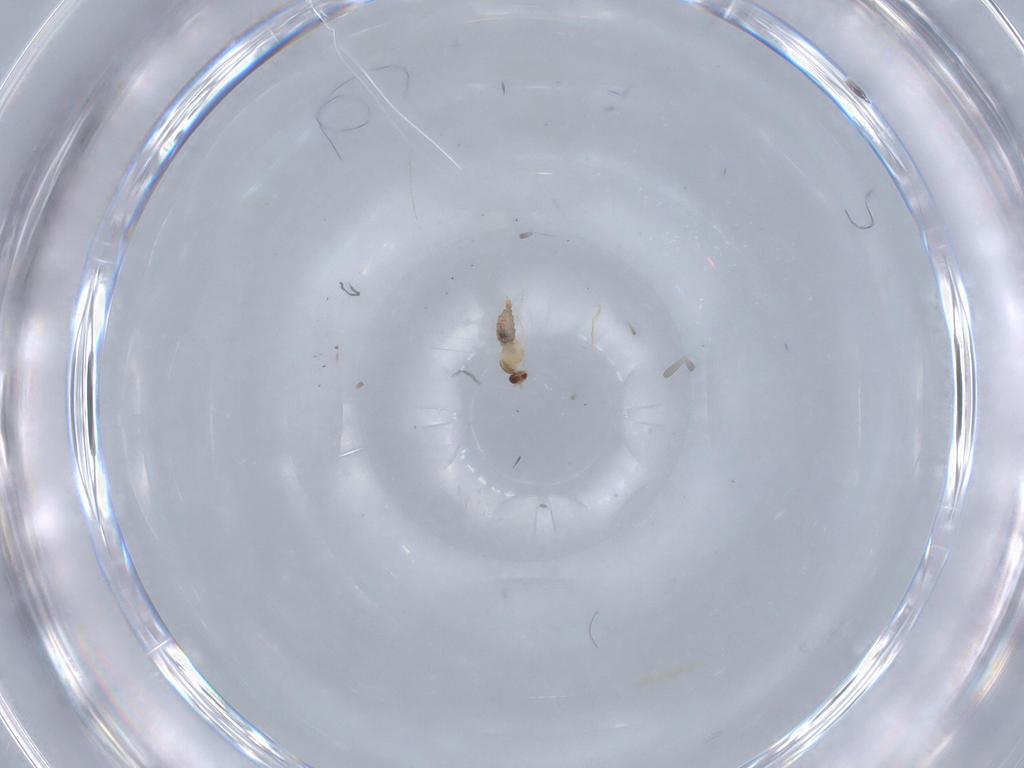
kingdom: Animalia
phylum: Arthropoda
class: Insecta
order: Diptera
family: Cecidomyiidae
